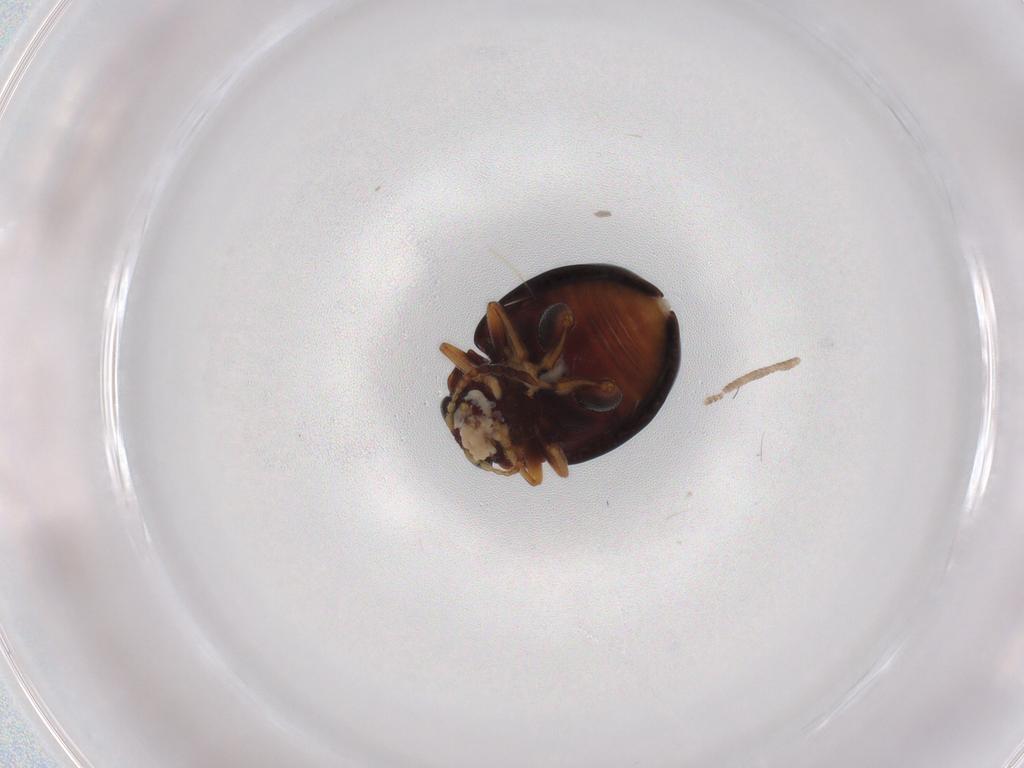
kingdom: Animalia
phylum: Arthropoda
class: Insecta
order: Coleoptera
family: Chrysomelidae
